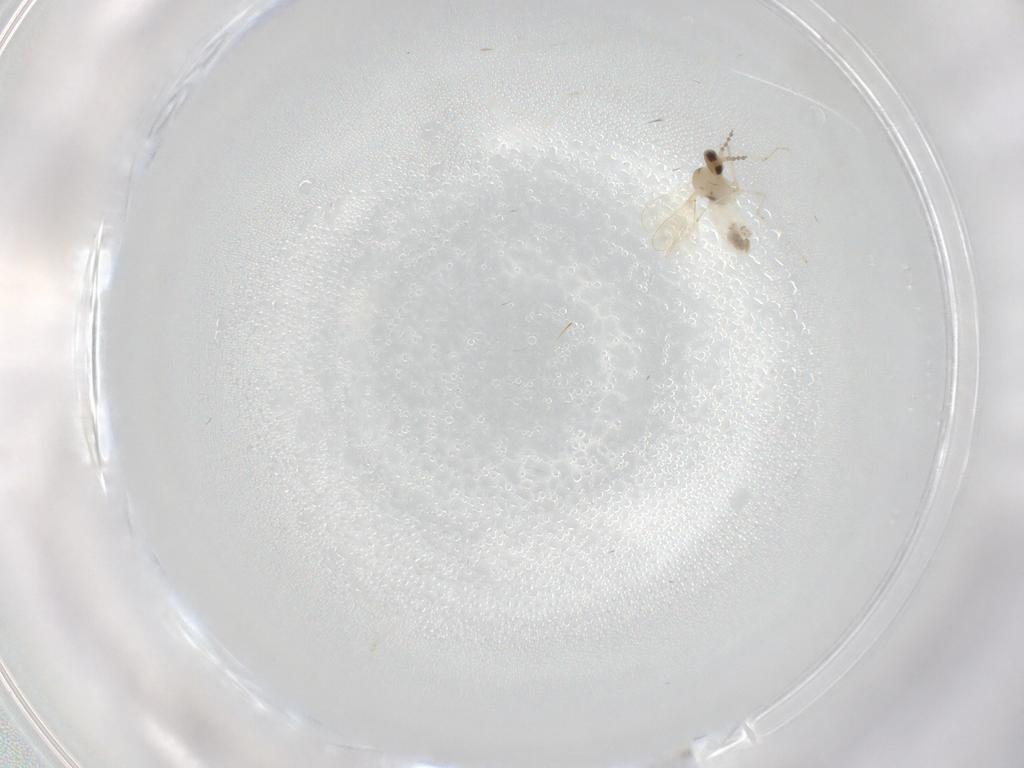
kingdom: Animalia
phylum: Arthropoda
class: Insecta
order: Diptera
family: Cecidomyiidae
